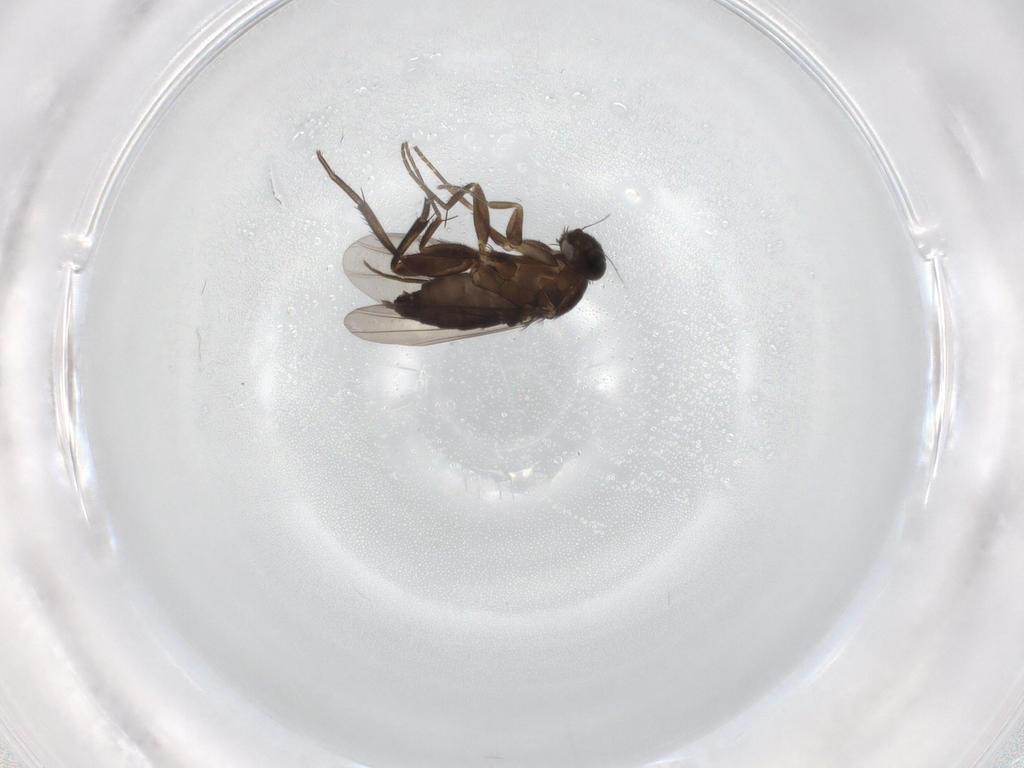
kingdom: Animalia
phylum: Arthropoda
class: Insecta
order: Diptera
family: Phoridae
